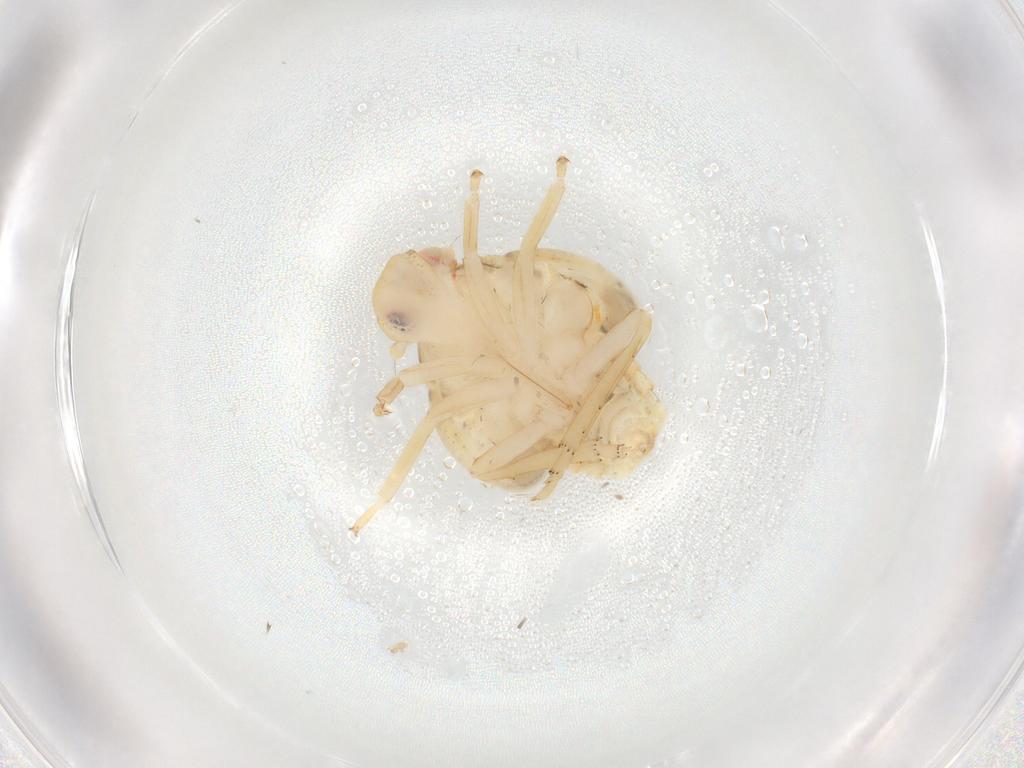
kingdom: Animalia
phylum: Arthropoda
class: Insecta
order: Hemiptera
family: Flatidae
